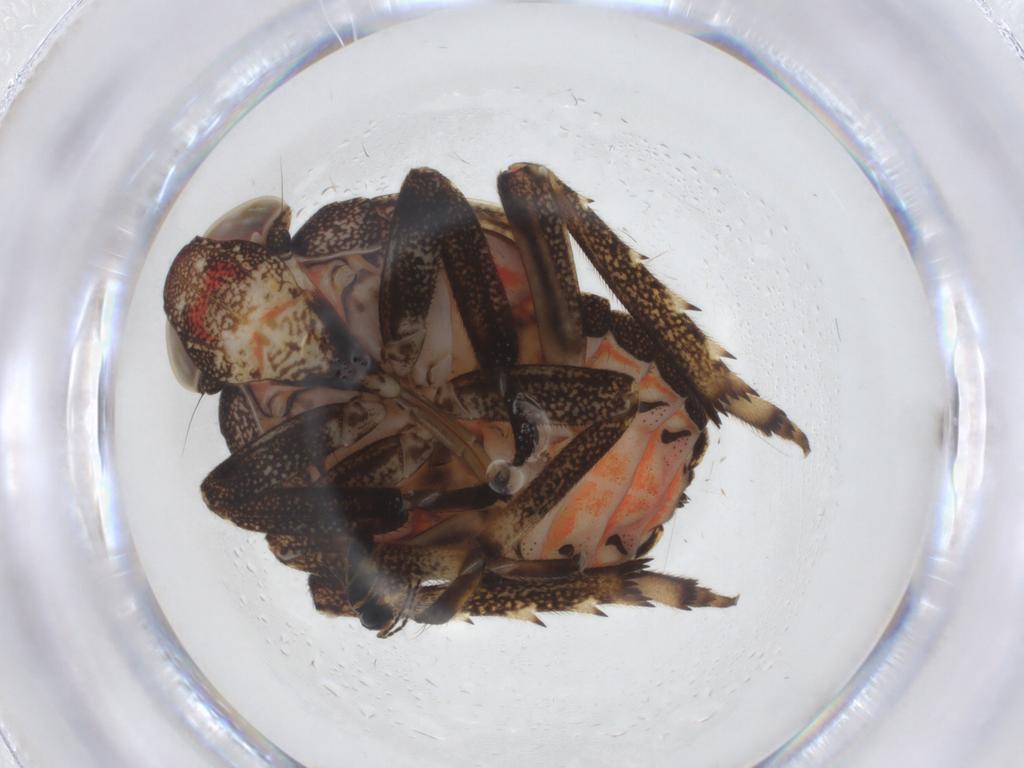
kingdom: Animalia
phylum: Arthropoda
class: Insecta
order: Hemiptera
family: Issidae
